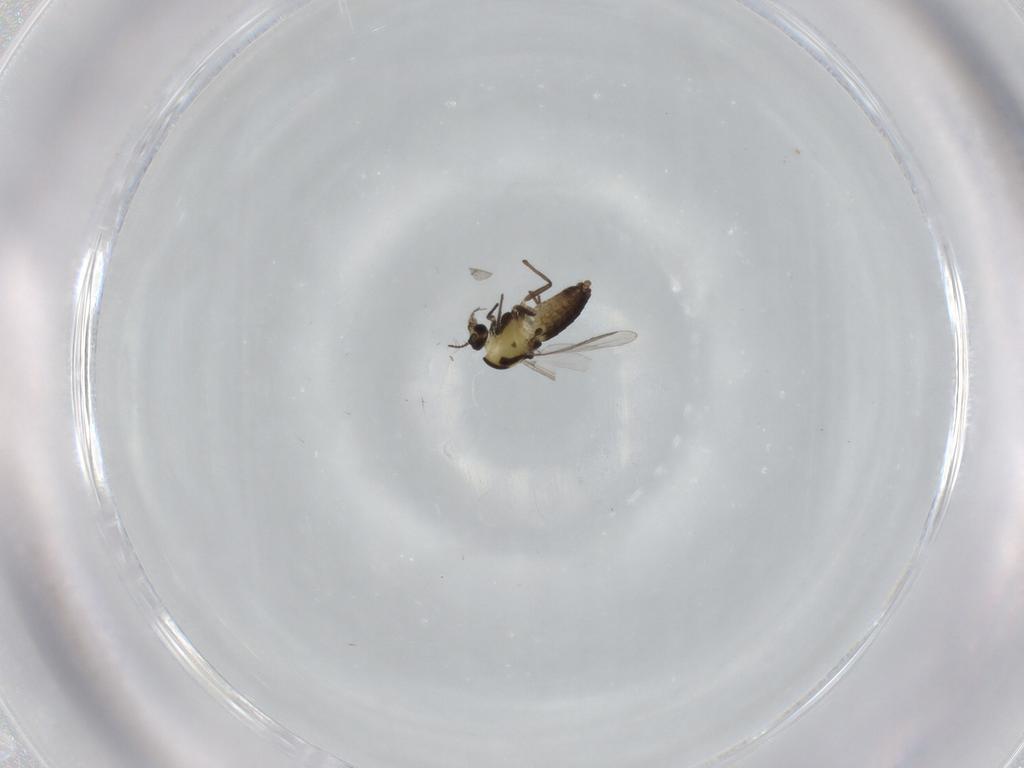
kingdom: Animalia
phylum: Arthropoda
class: Insecta
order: Diptera
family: Chironomidae
